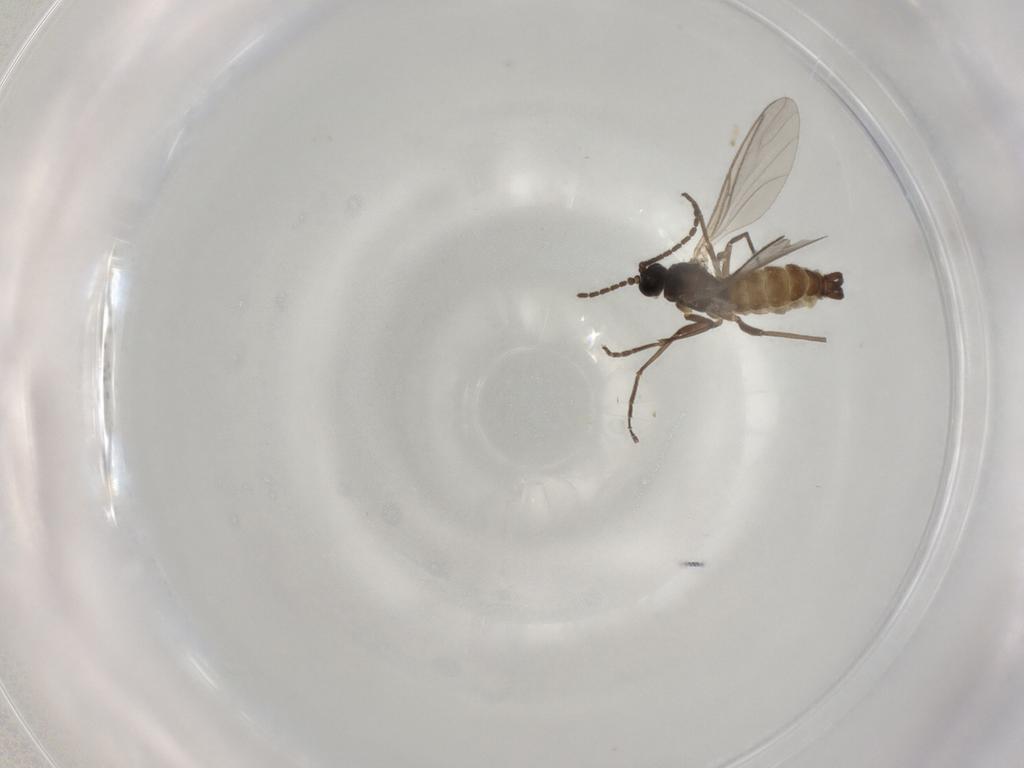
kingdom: Animalia
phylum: Arthropoda
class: Insecta
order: Diptera
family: Sciaridae
